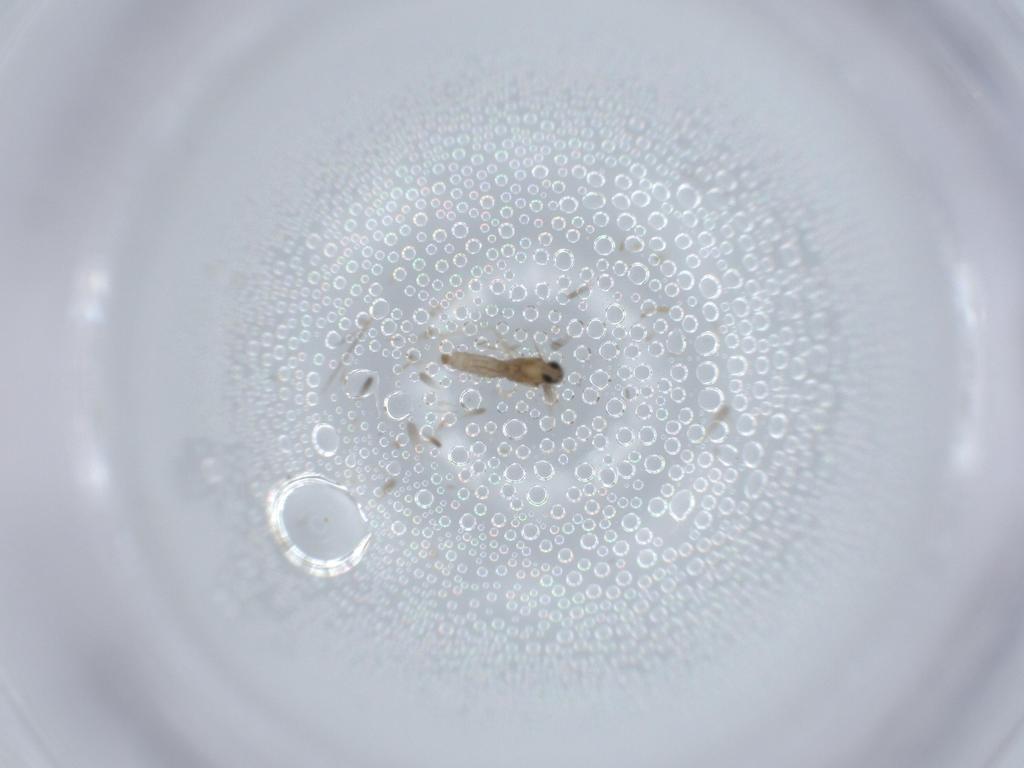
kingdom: Animalia
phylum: Arthropoda
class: Insecta
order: Diptera
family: Cecidomyiidae
